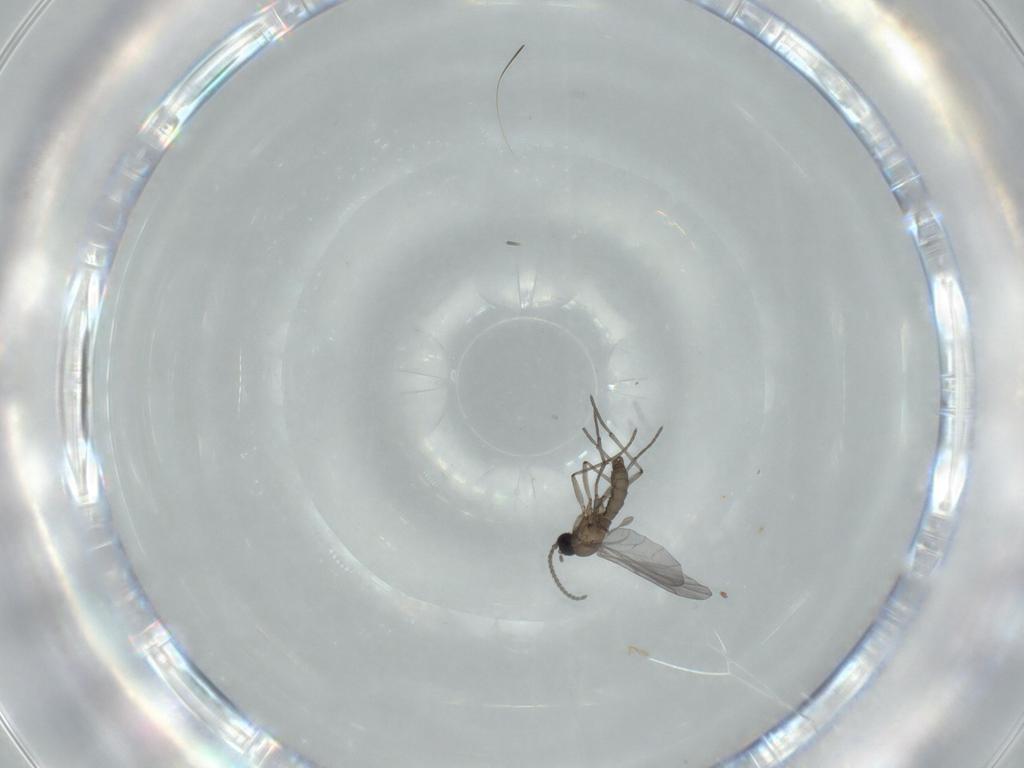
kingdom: Animalia
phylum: Arthropoda
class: Insecta
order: Diptera
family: Sciaridae
